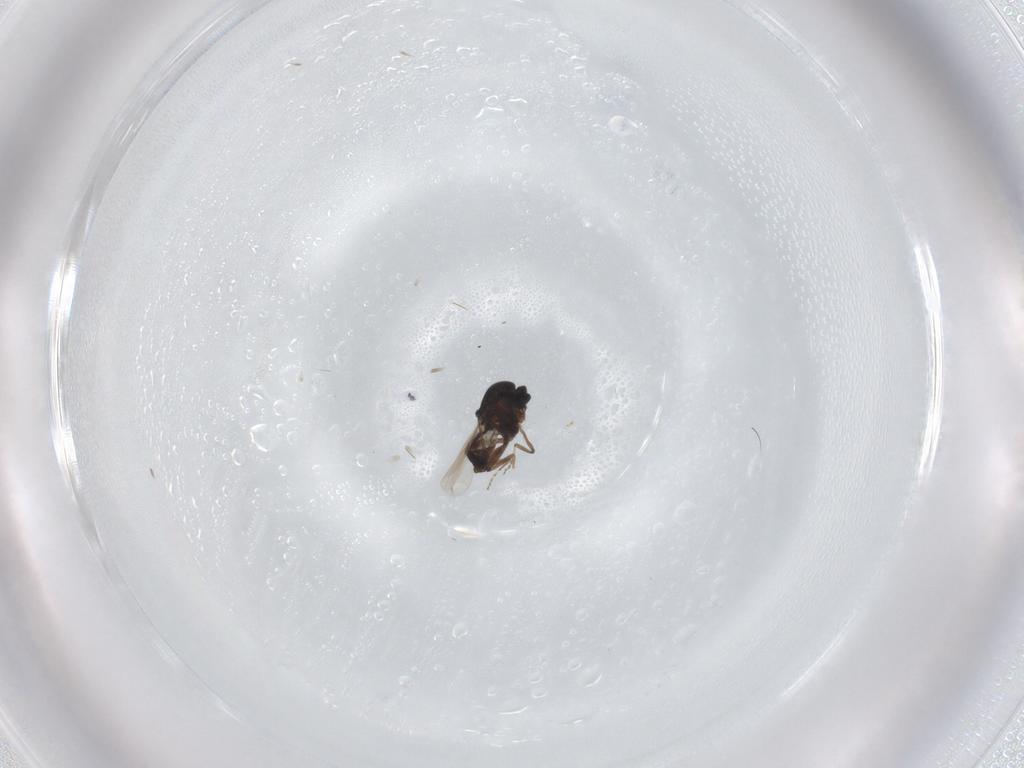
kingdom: Animalia
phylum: Arthropoda
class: Insecta
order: Diptera
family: Ceratopogonidae
